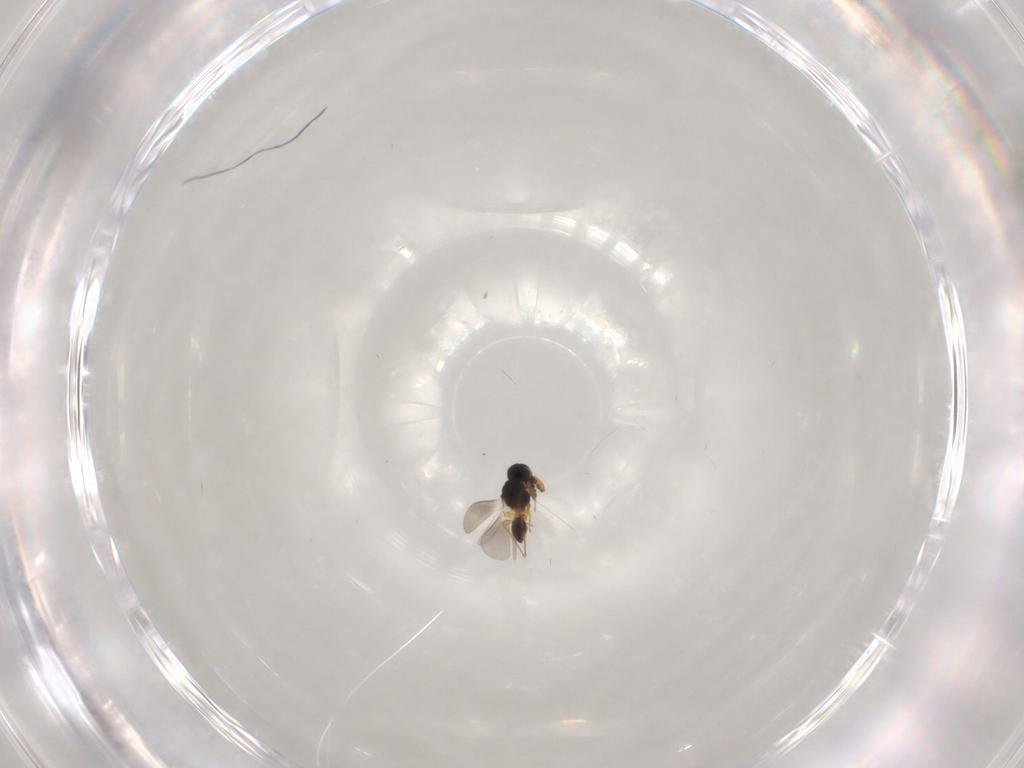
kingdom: Animalia
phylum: Arthropoda
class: Insecta
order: Hymenoptera
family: Platygastridae
